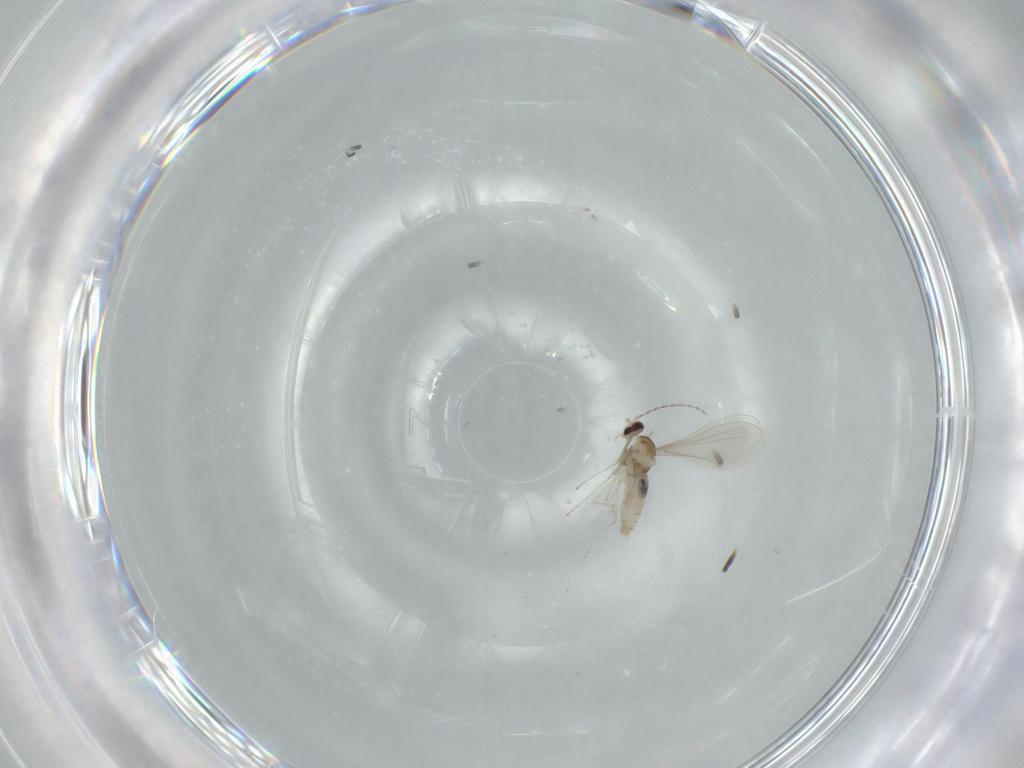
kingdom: Animalia
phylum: Arthropoda
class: Insecta
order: Diptera
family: Cecidomyiidae
